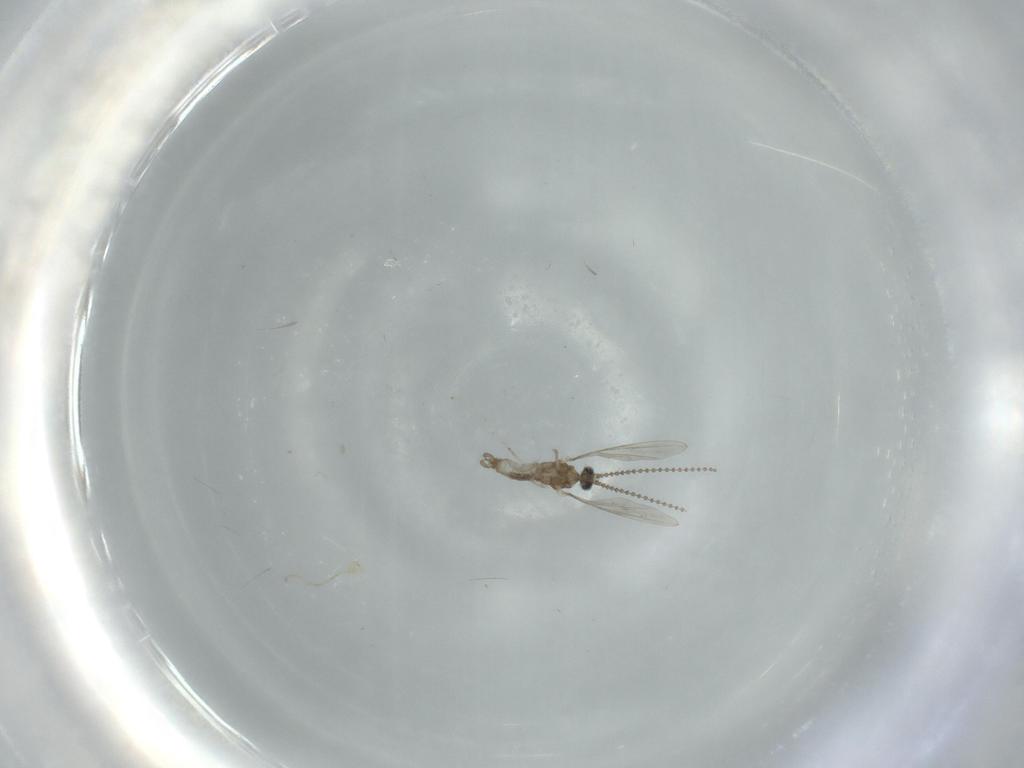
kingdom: Animalia
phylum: Arthropoda
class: Insecta
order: Diptera
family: Cecidomyiidae
